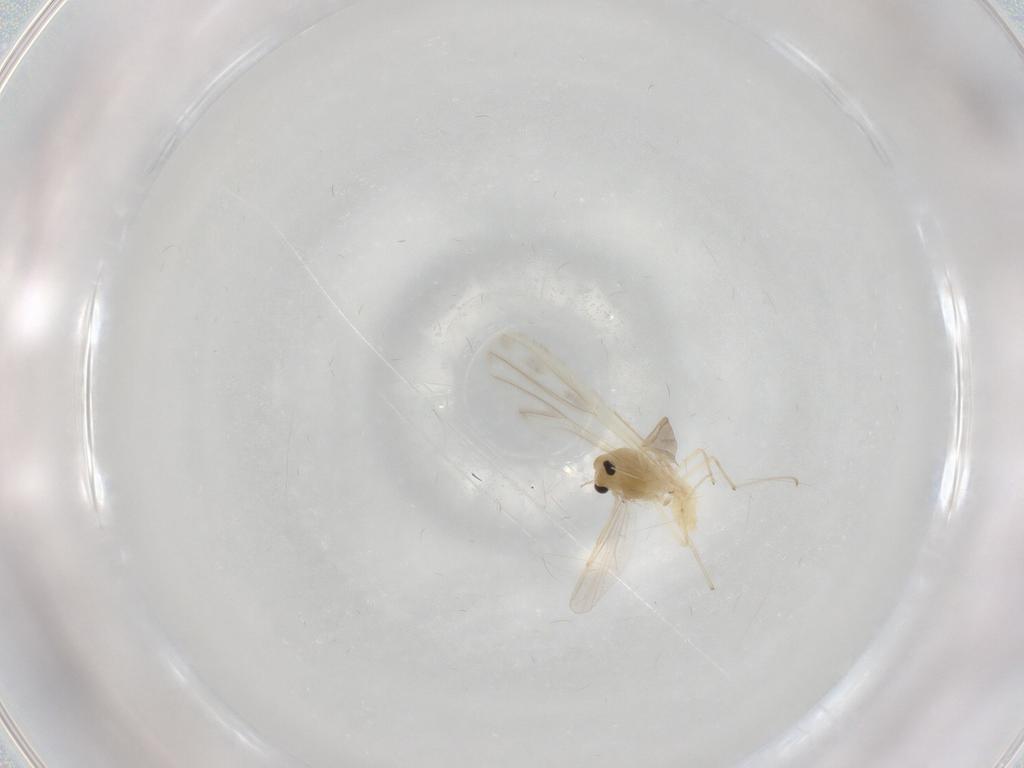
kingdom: Animalia
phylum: Arthropoda
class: Insecta
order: Diptera
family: Chironomidae
